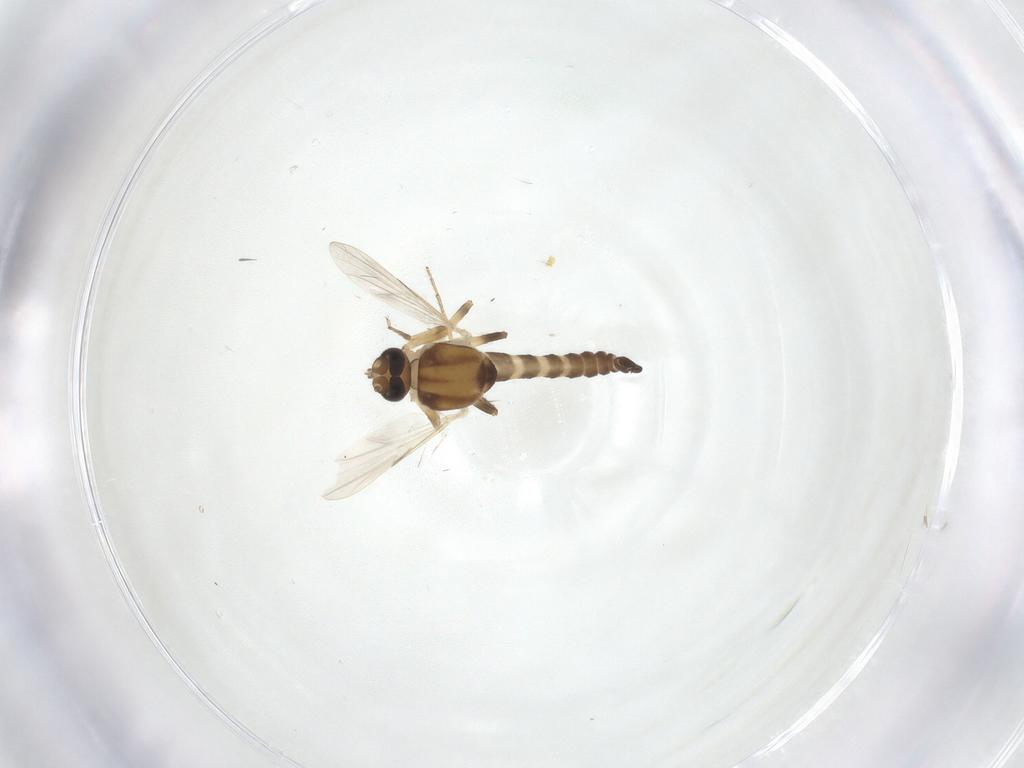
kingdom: Animalia
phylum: Arthropoda
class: Insecta
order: Diptera
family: Ceratopogonidae
